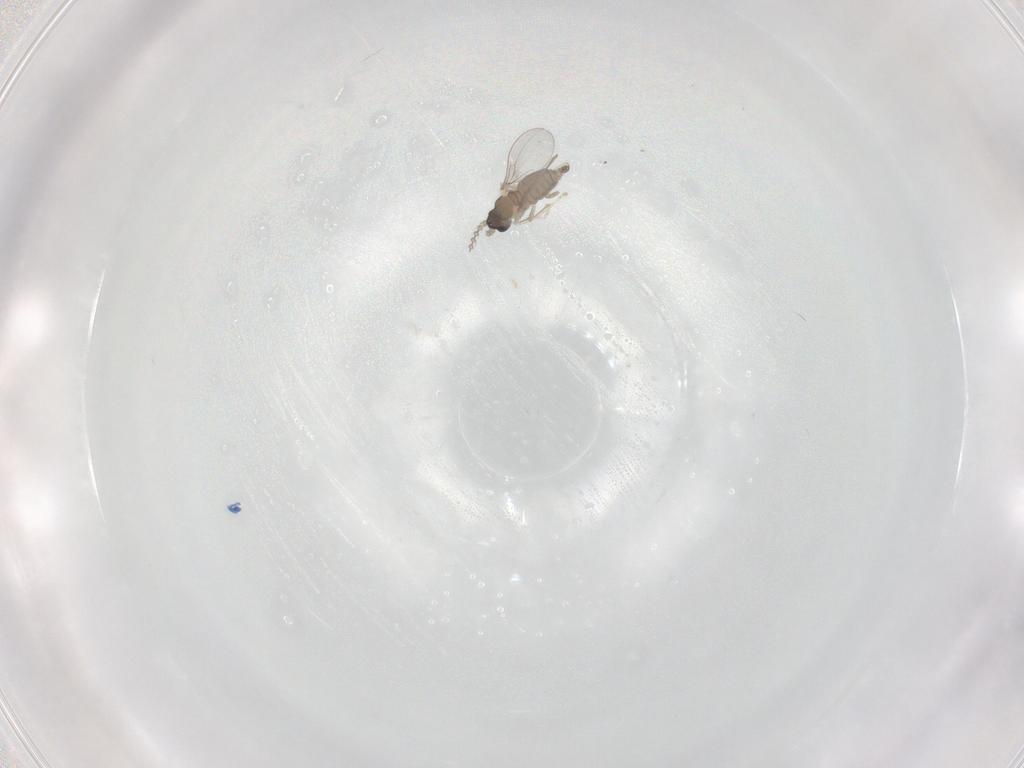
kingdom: Animalia
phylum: Arthropoda
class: Insecta
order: Diptera
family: Cecidomyiidae
